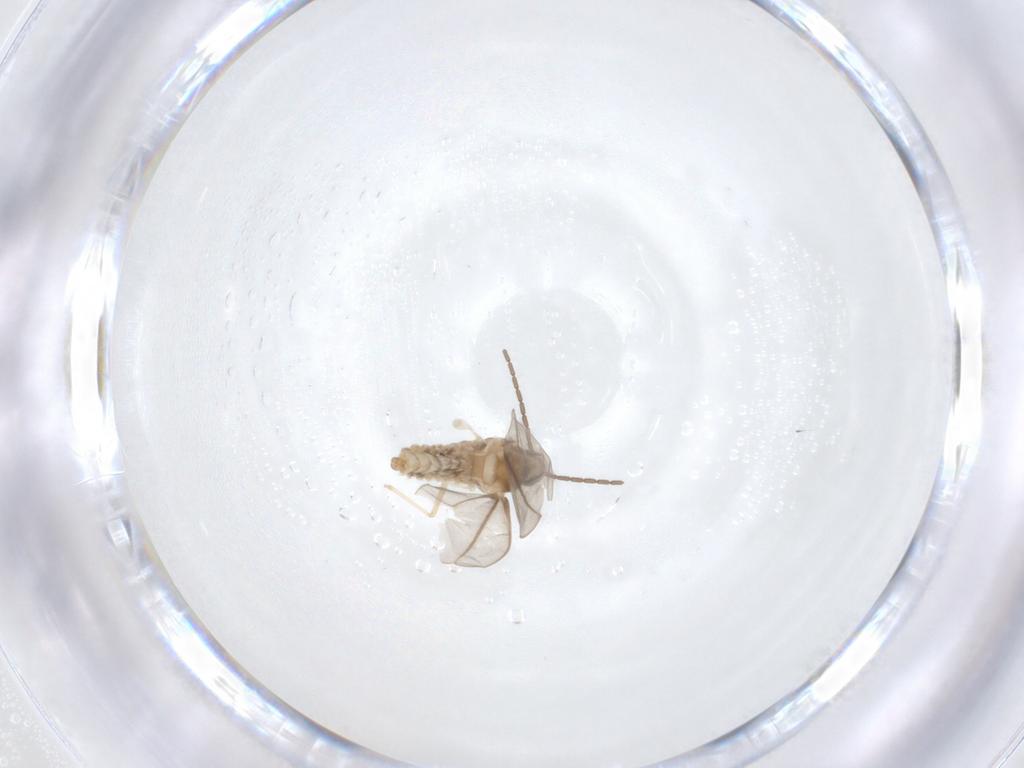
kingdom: Animalia
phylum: Arthropoda
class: Insecta
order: Diptera
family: Cecidomyiidae
